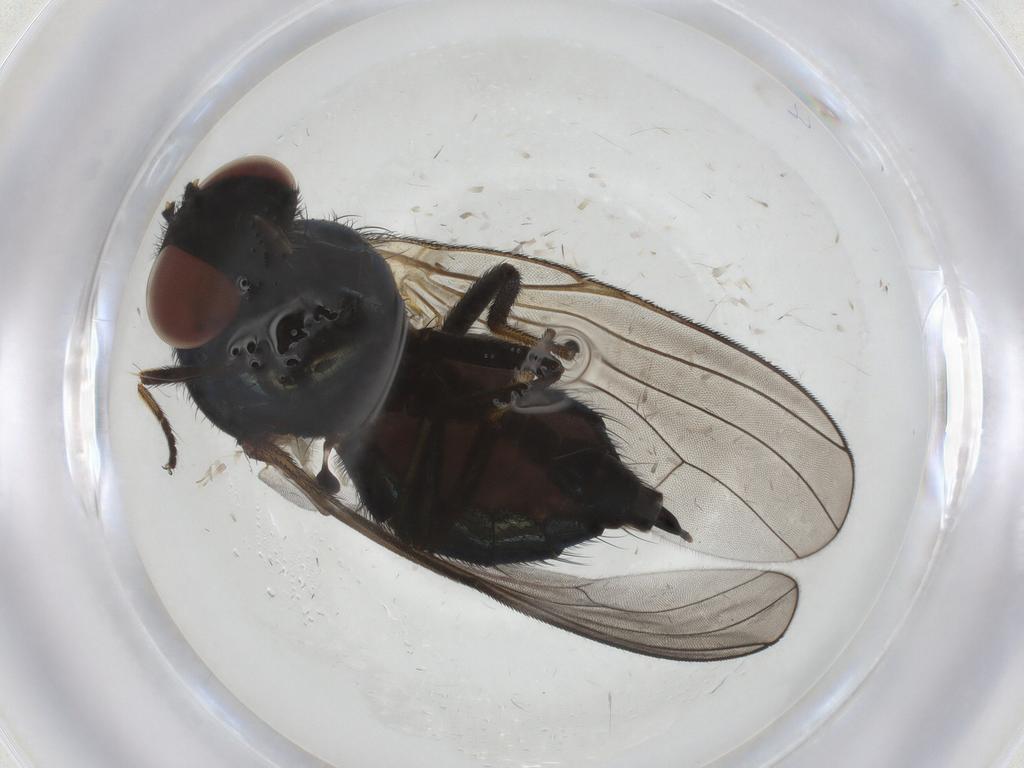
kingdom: Animalia
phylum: Arthropoda
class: Insecta
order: Diptera
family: Lonchaeidae
